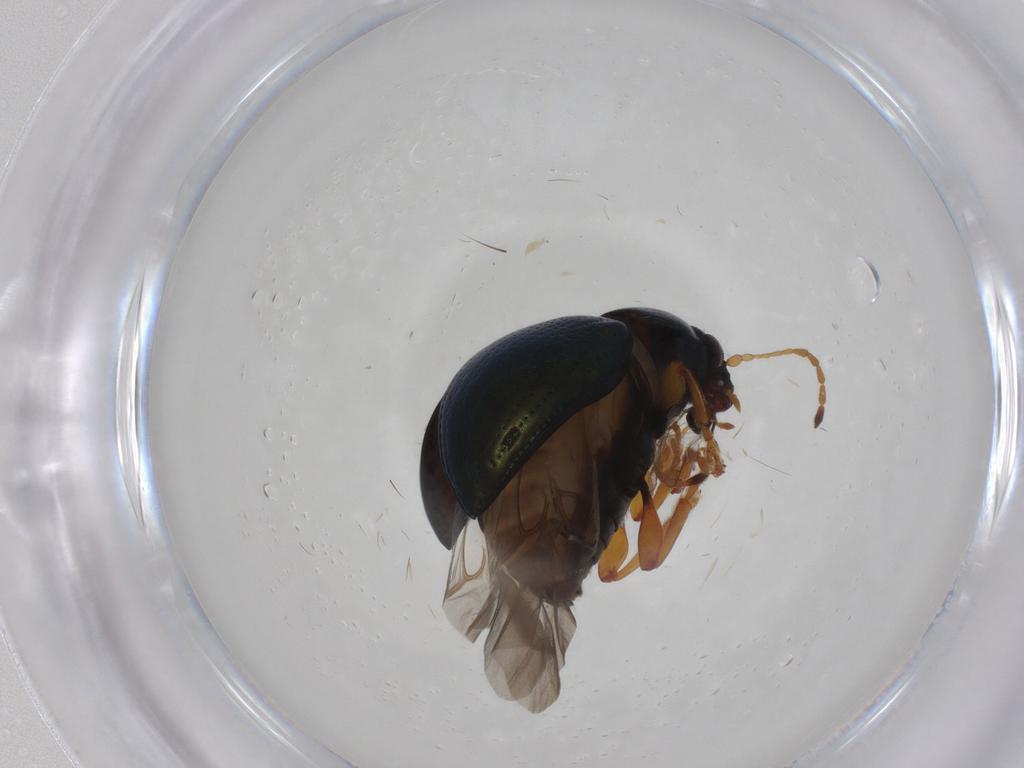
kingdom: Animalia
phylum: Arthropoda
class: Insecta
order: Coleoptera
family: Chrysomelidae
